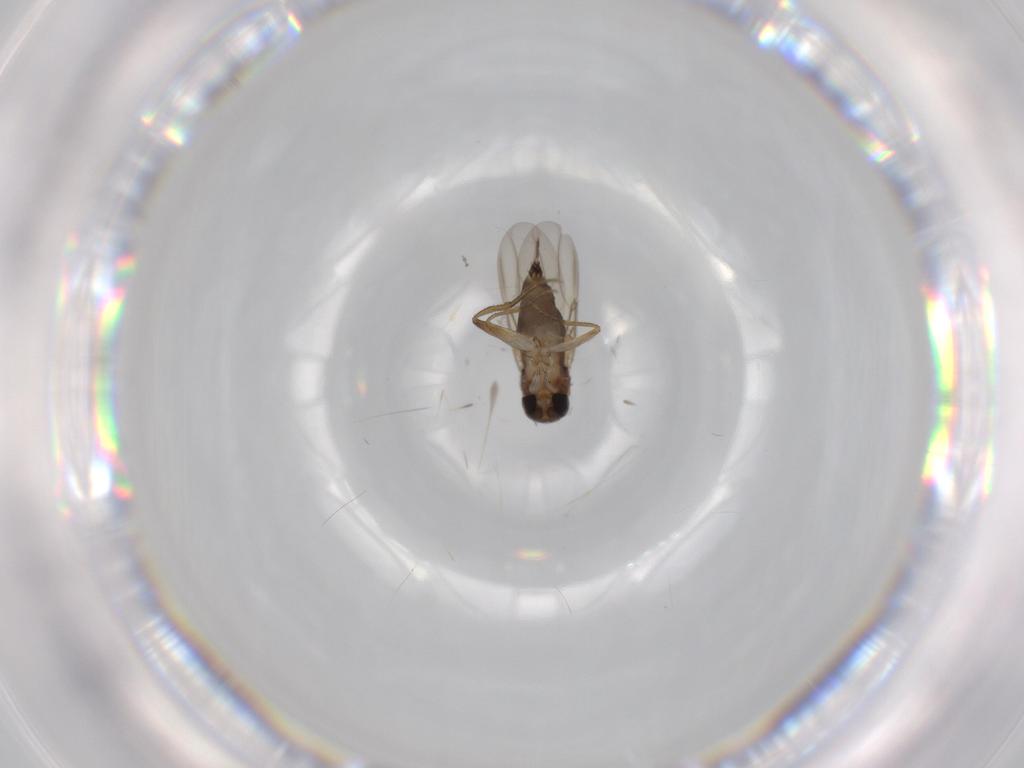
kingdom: Animalia
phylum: Arthropoda
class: Insecta
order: Diptera
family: Phoridae
